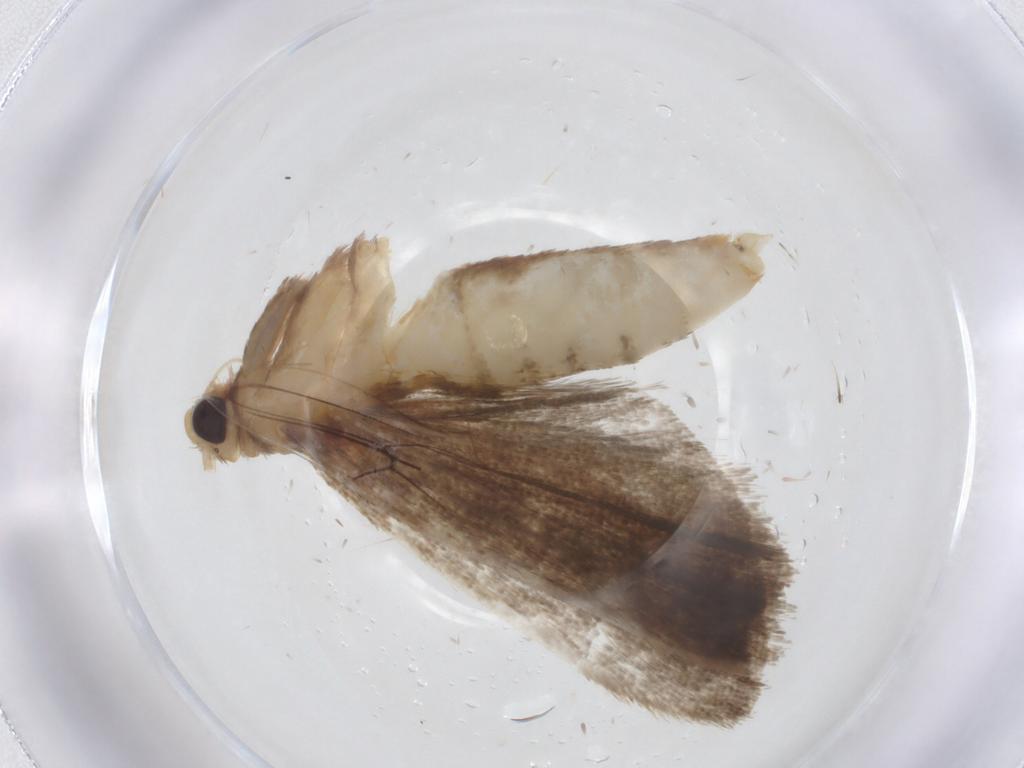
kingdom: Animalia
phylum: Arthropoda
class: Insecta
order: Lepidoptera
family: Pyralidae
